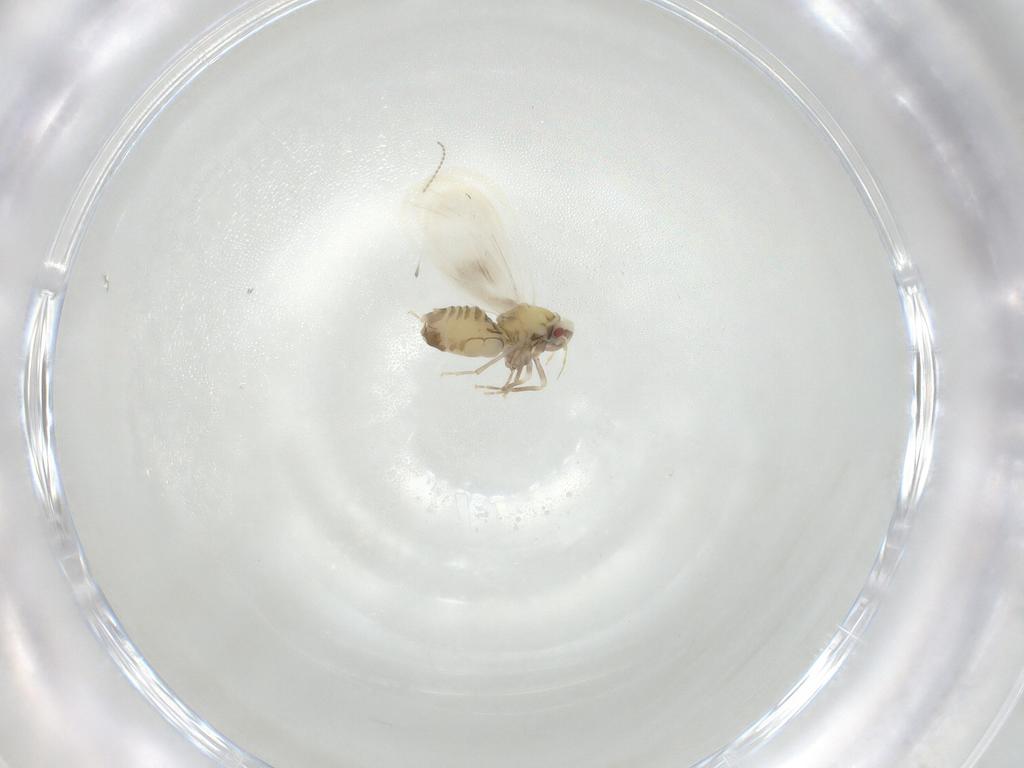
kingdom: Animalia
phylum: Arthropoda
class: Insecta
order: Hemiptera
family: Aleyrodidae
